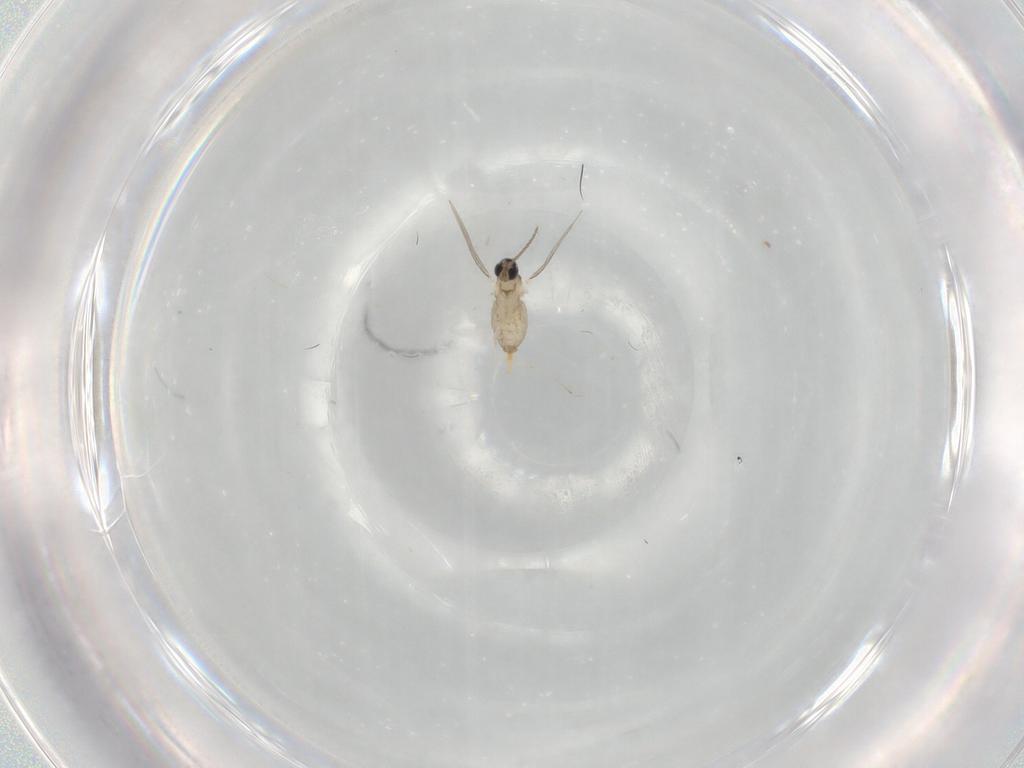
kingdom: Animalia
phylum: Arthropoda
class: Insecta
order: Diptera
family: Cecidomyiidae
